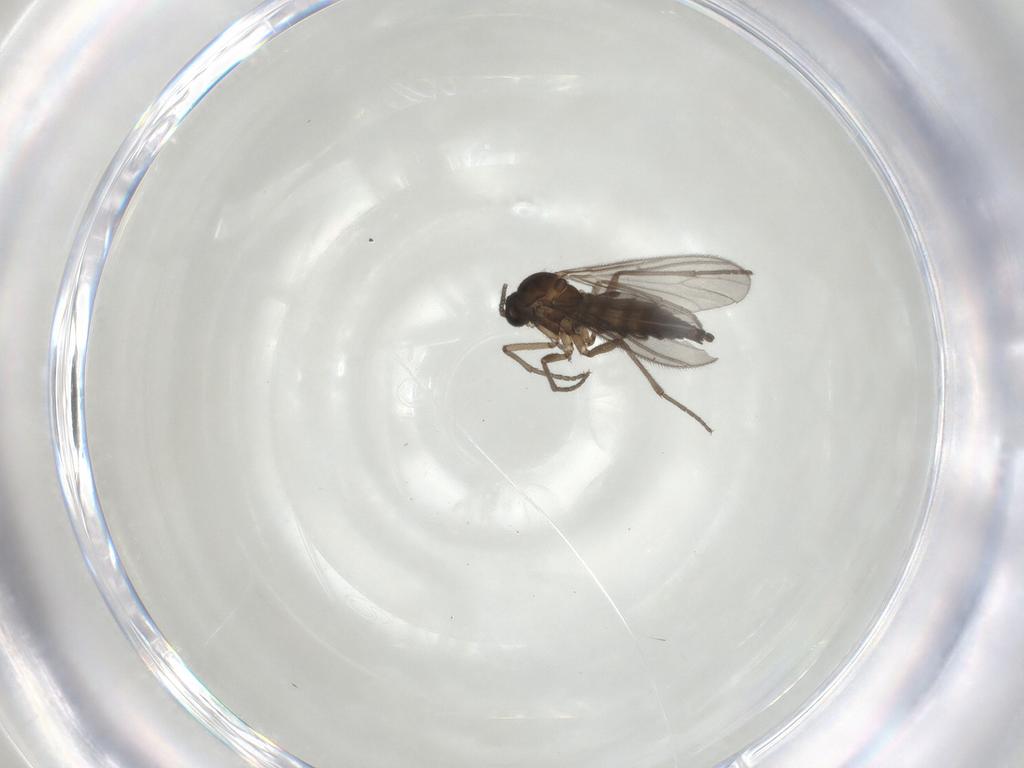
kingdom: Animalia
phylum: Arthropoda
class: Insecta
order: Diptera
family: Sciaridae
